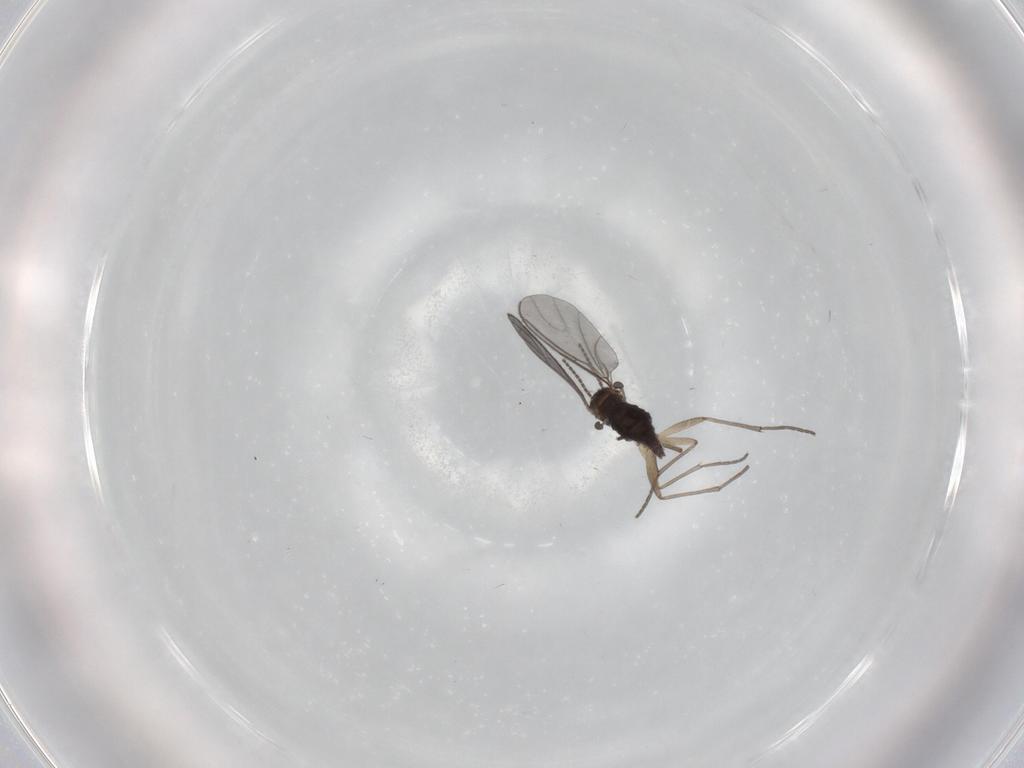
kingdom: Animalia
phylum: Arthropoda
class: Insecta
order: Diptera
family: Sciaridae
